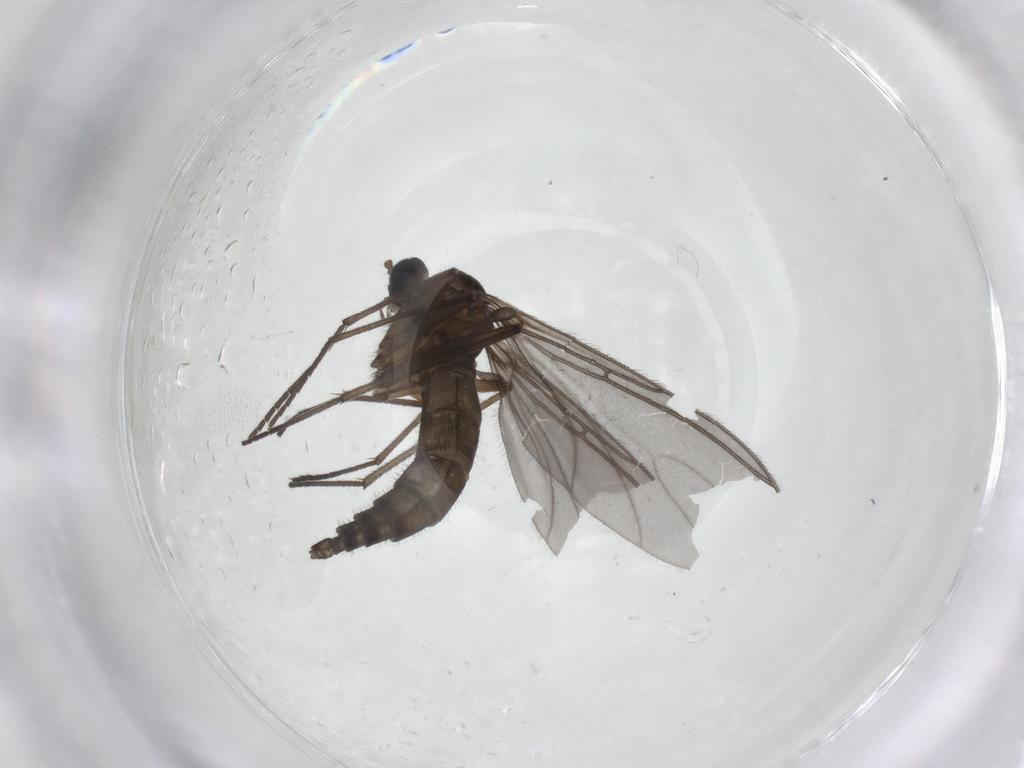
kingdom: Animalia
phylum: Arthropoda
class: Insecta
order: Diptera
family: Sciaridae
